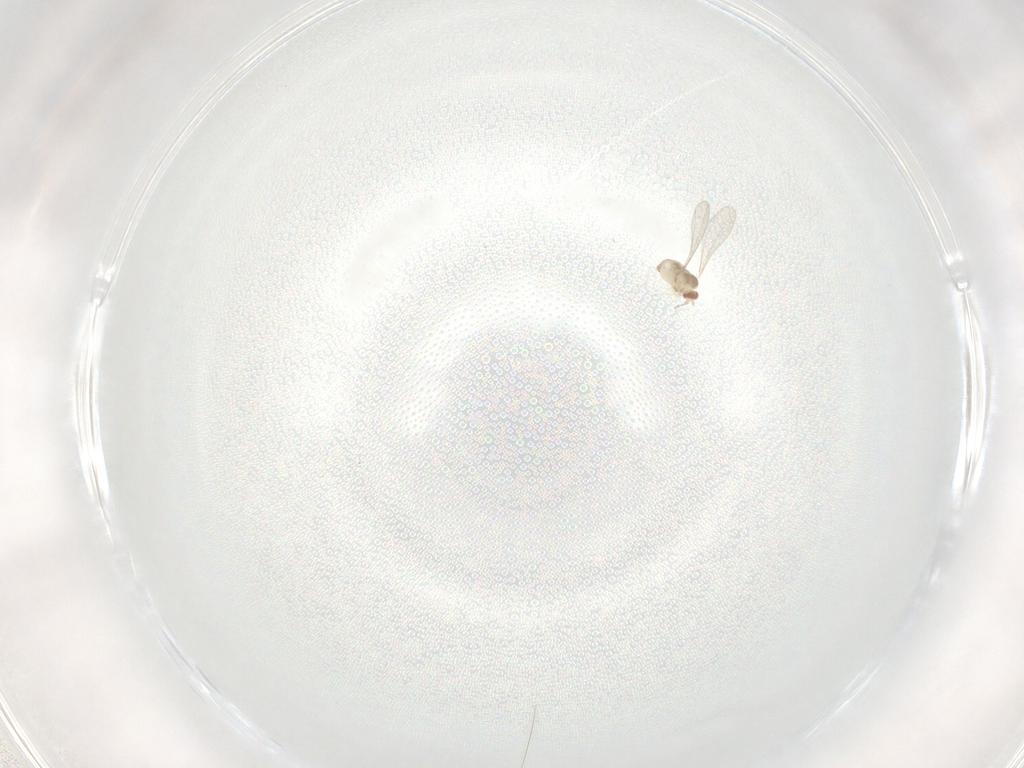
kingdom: Animalia
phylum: Arthropoda
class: Insecta
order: Diptera
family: Cecidomyiidae
